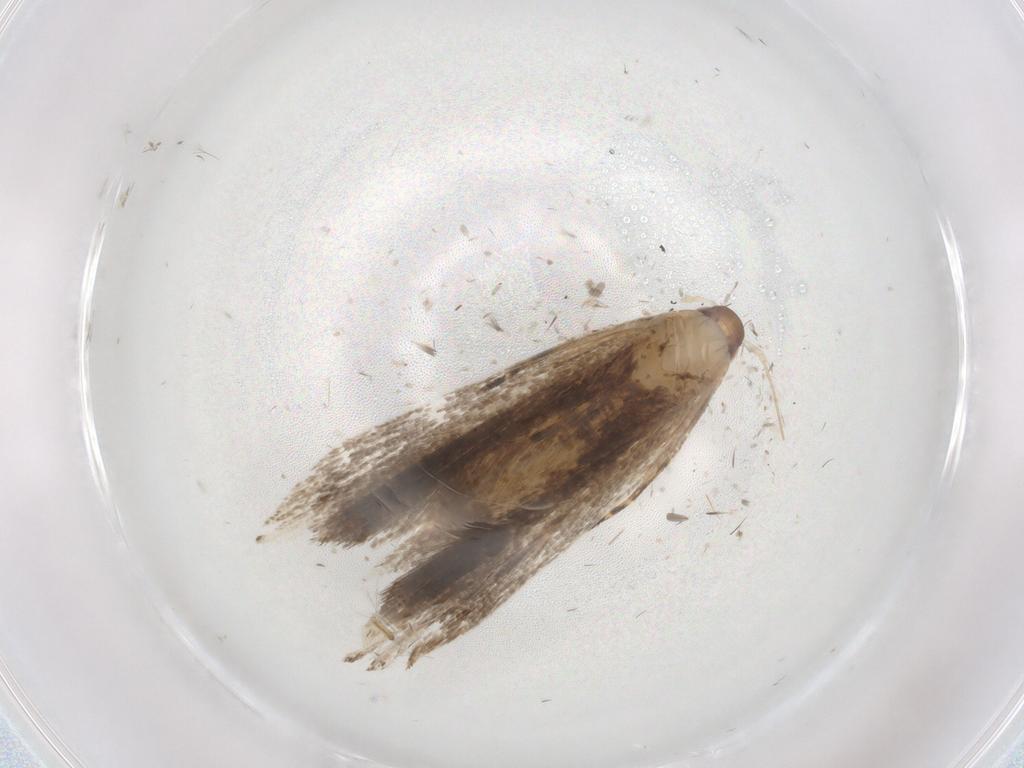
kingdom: Animalia
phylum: Arthropoda
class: Insecta
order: Lepidoptera
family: Gelechiidae
